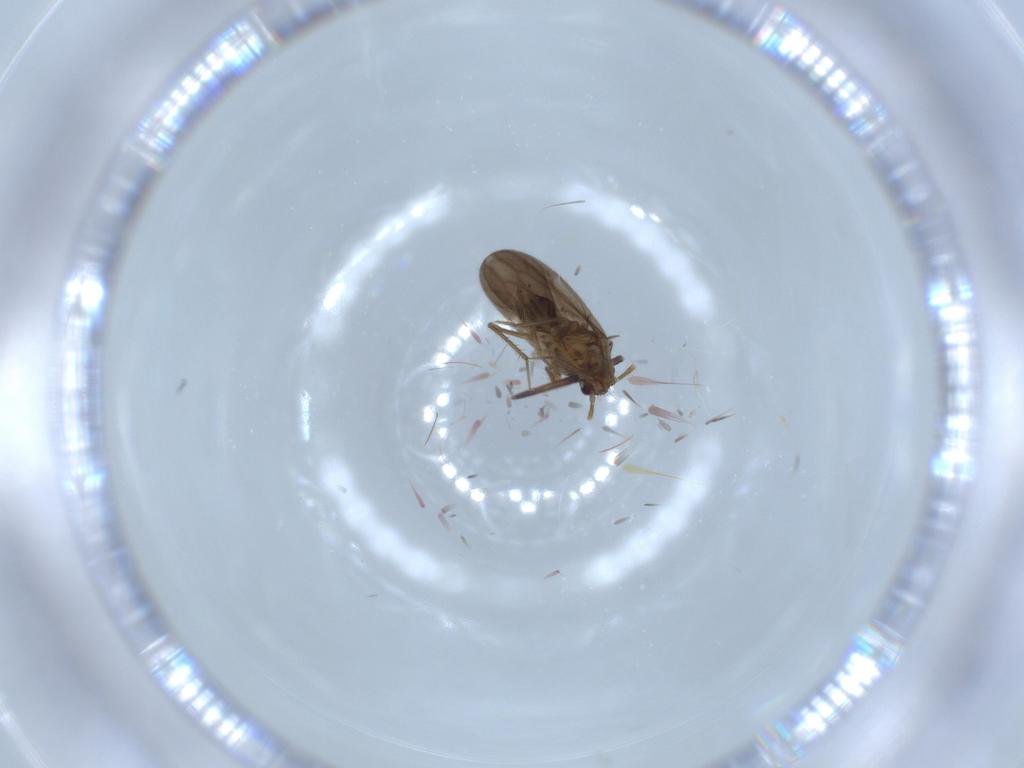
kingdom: Animalia
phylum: Arthropoda
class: Insecta
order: Hemiptera
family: Ceratocombidae
